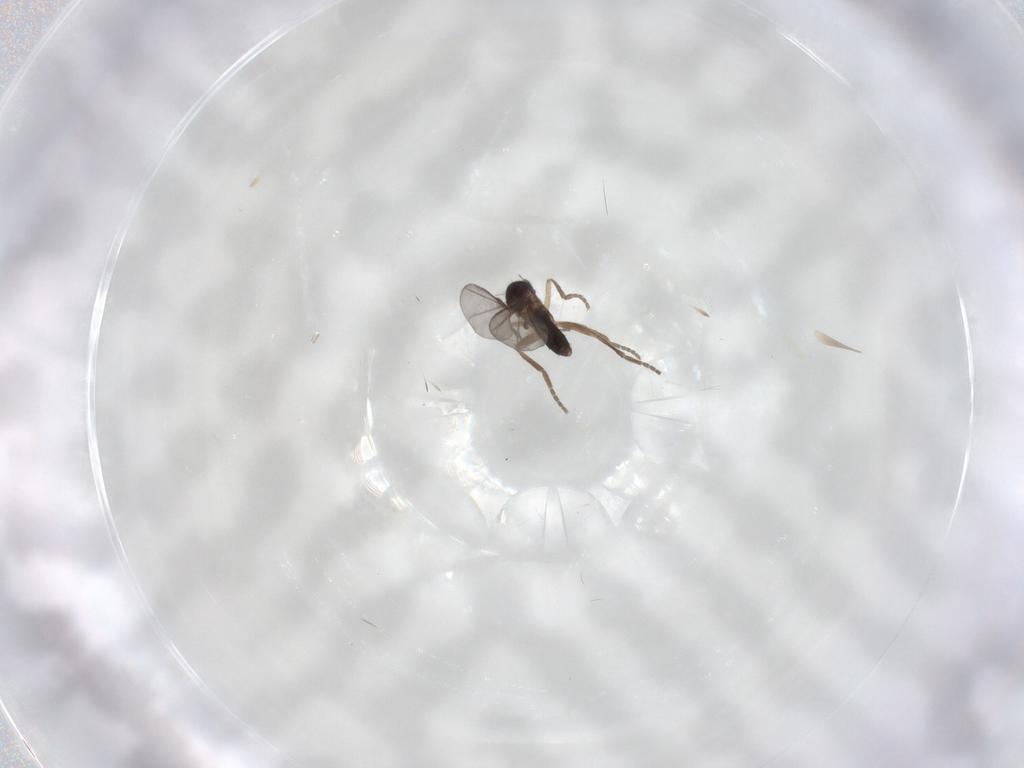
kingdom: Animalia
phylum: Arthropoda
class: Insecta
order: Diptera
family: Phoridae
